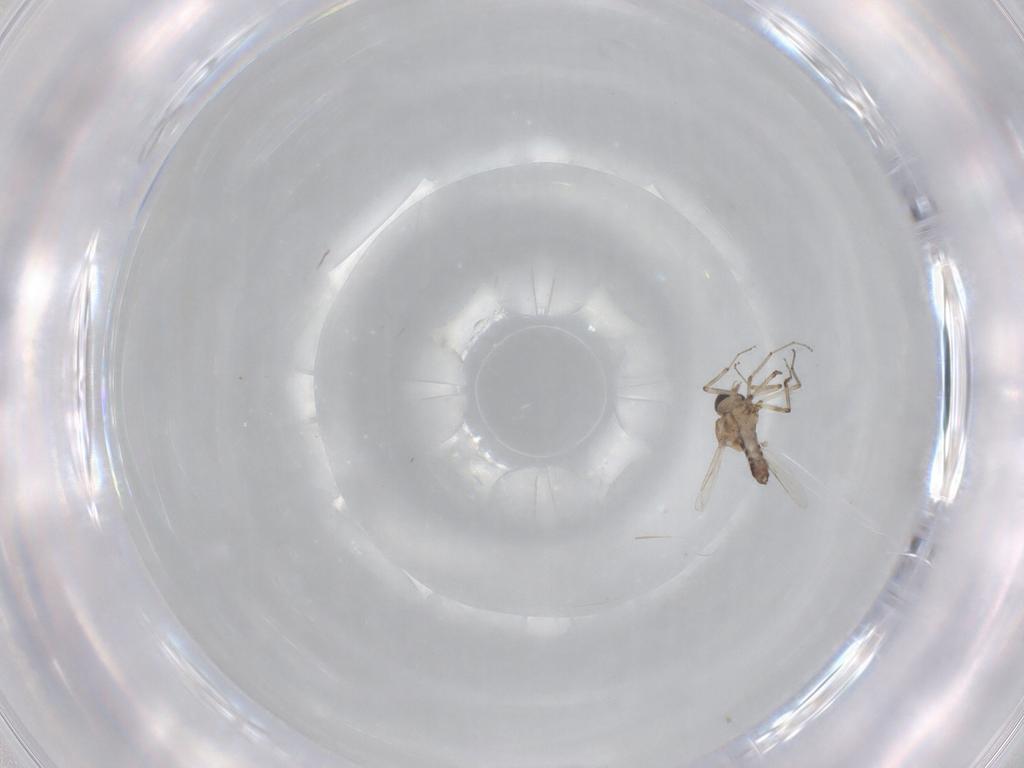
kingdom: Animalia
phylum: Arthropoda
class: Insecta
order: Diptera
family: Ceratopogonidae
